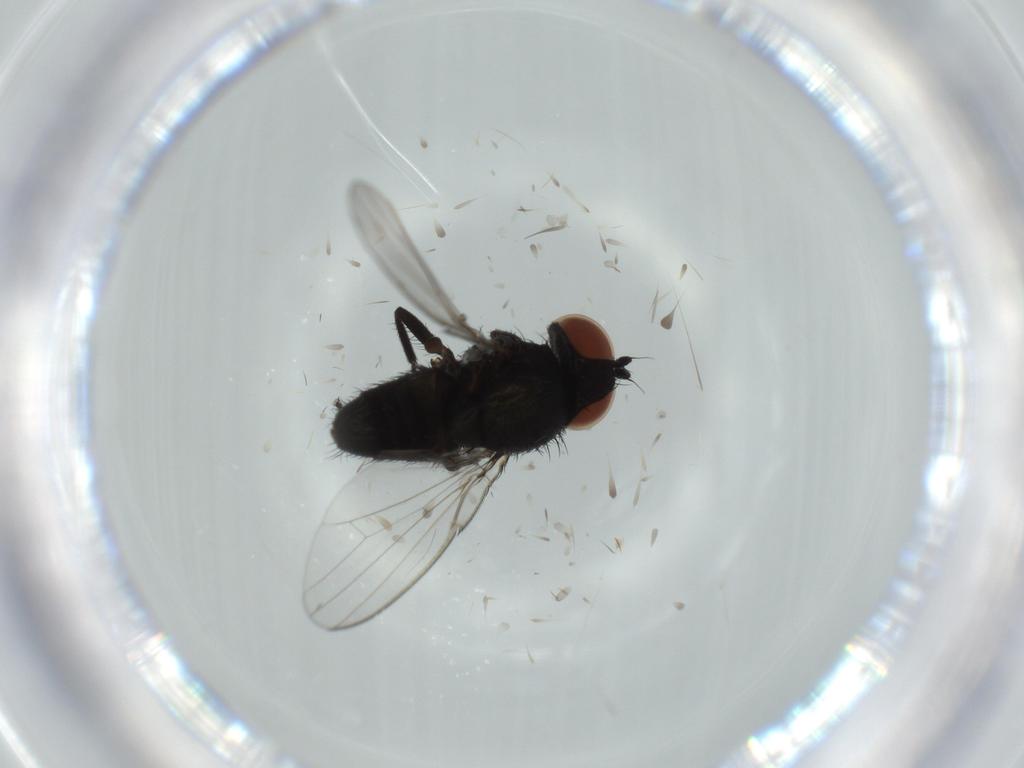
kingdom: Animalia
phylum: Arthropoda
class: Insecta
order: Diptera
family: Milichiidae
